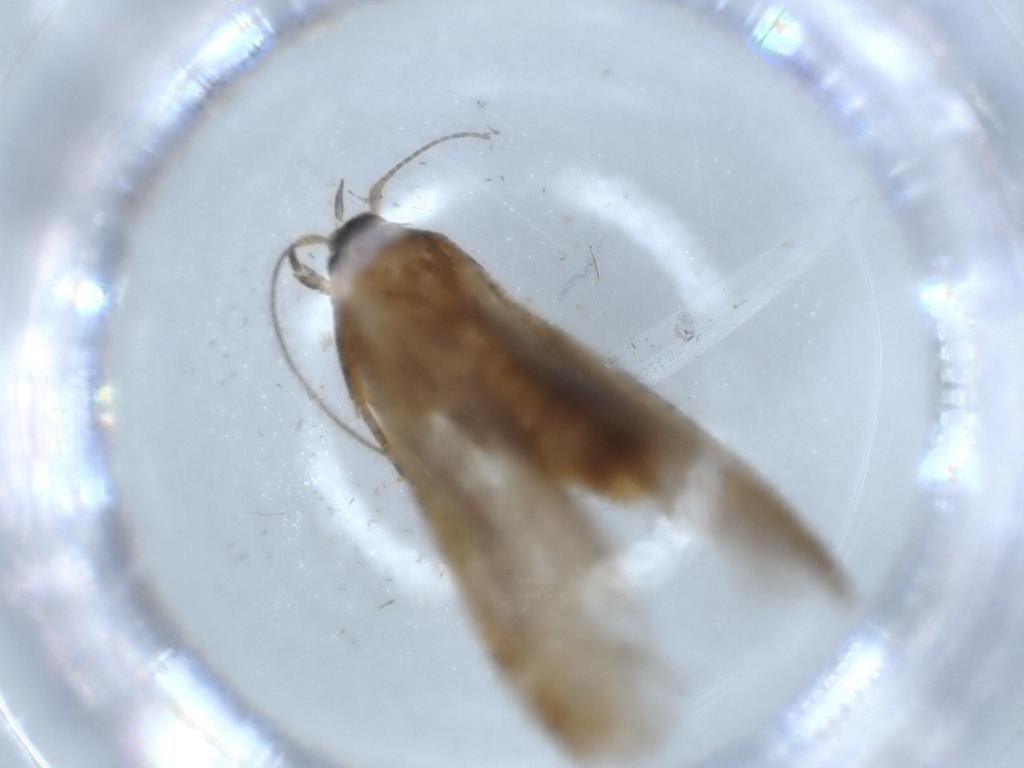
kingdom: Animalia
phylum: Arthropoda
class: Insecta
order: Lepidoptera
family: Coleophoridae
